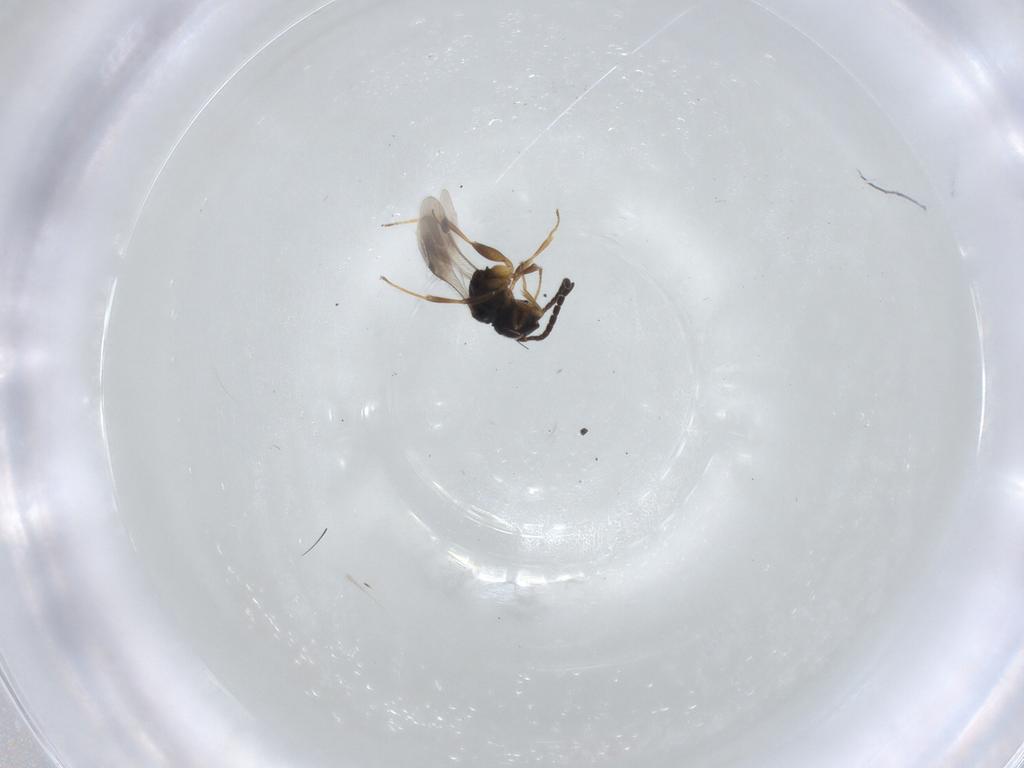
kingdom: Animalia
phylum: Arthropoda
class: Insecta
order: Hymenoptera
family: Megaspilidae
